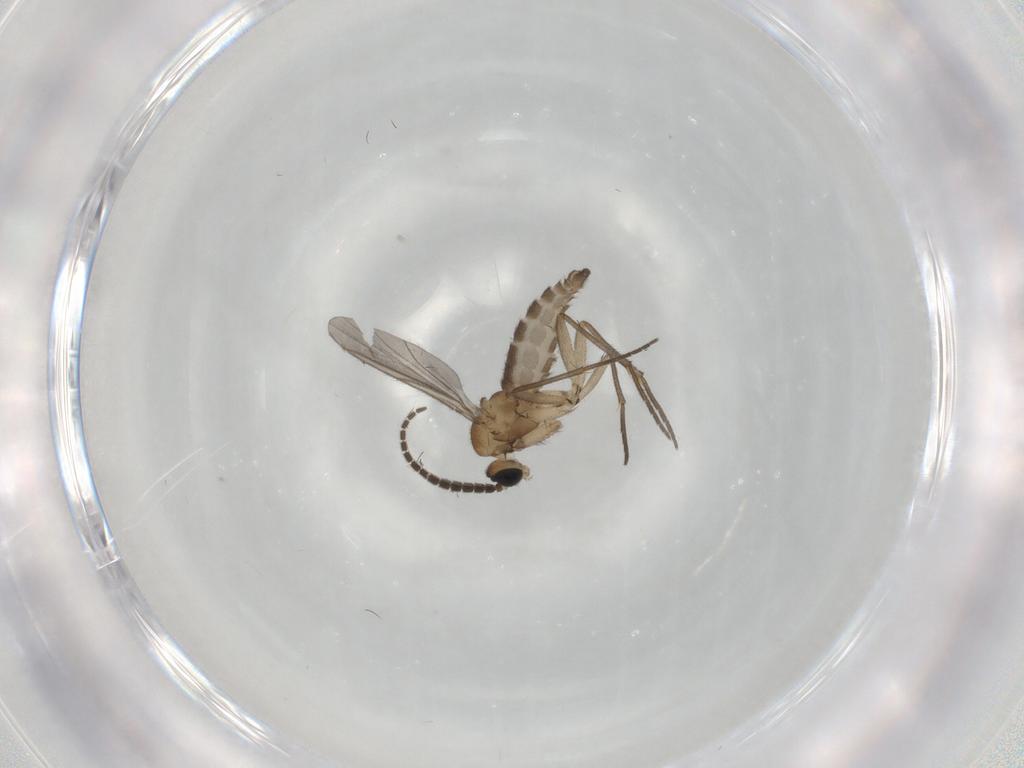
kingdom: Animalia
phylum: Arthropoda
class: Insecta
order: Diptera
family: Sciaridae
